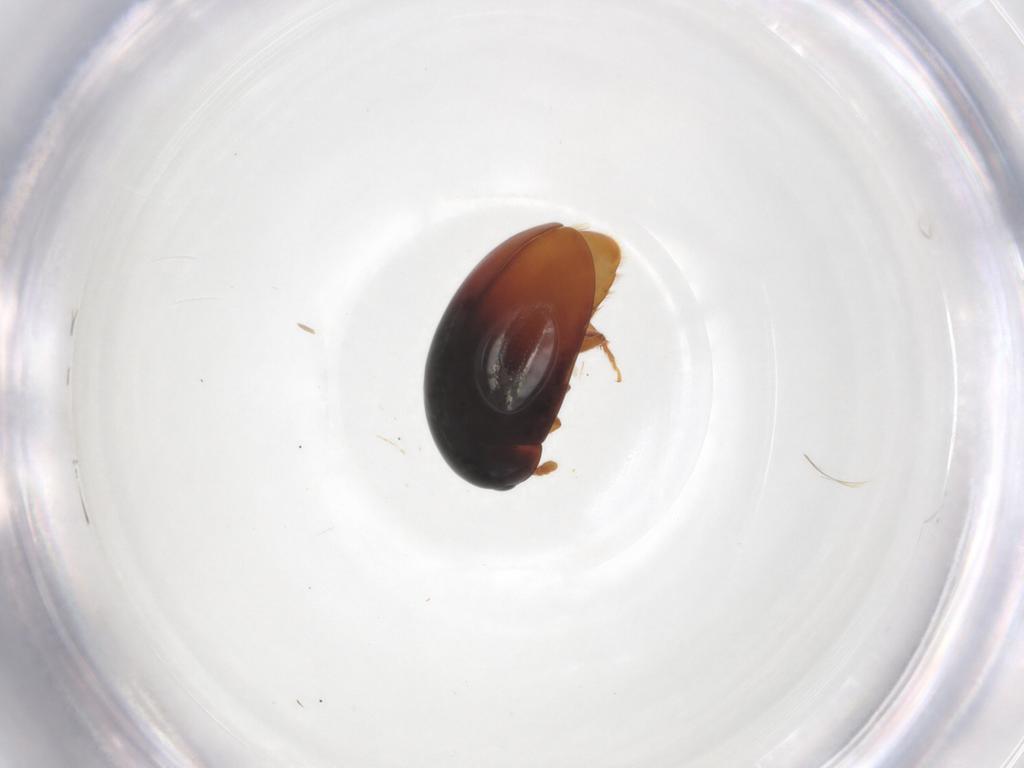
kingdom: Animalia
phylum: Arthropoda
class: Insecta
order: Coleoptera
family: Phalacridae
